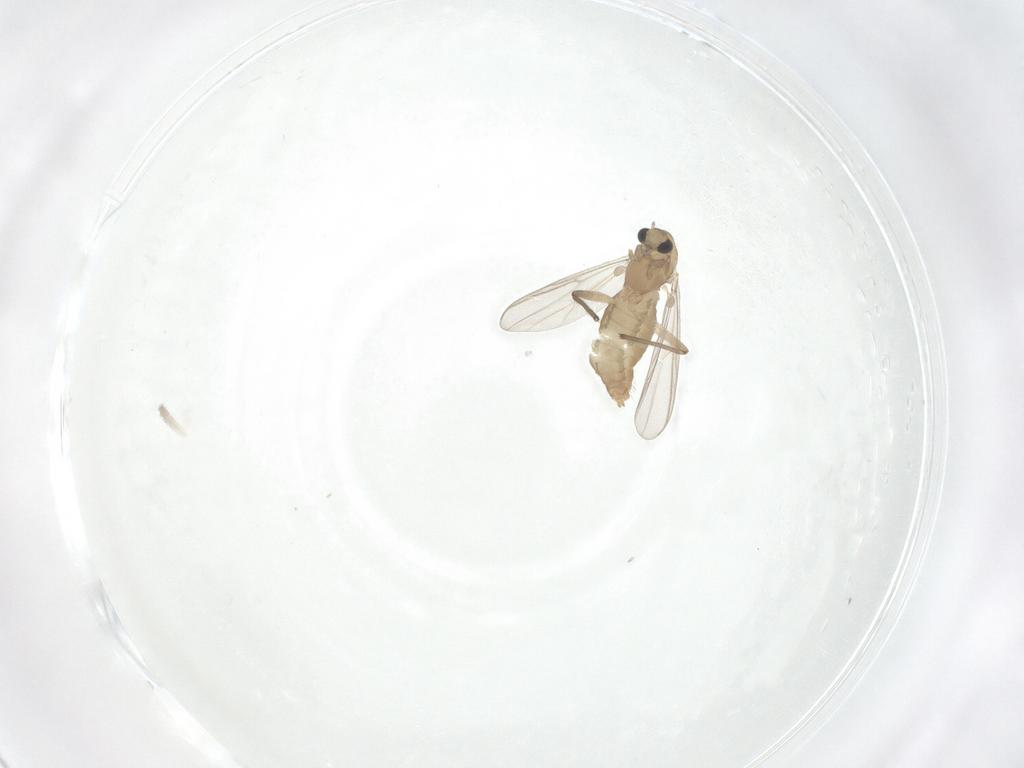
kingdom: Animalia
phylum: Arthropoda
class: Insecta
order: Diptera
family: Chironomidae
